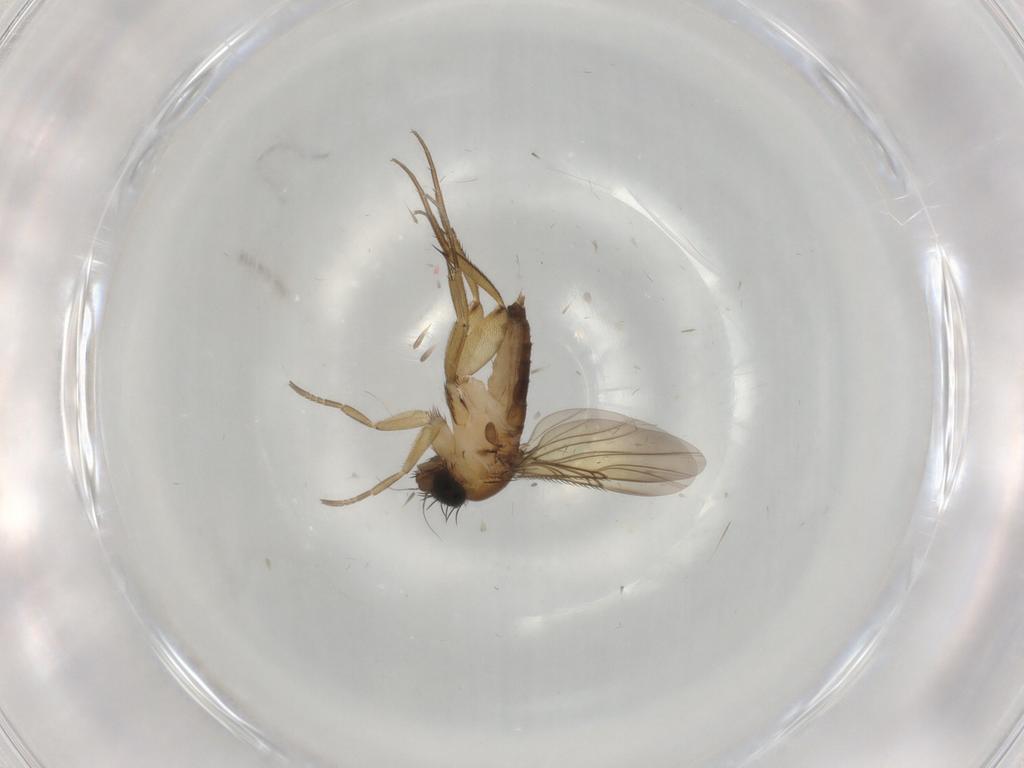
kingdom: Animalia
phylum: Arthropoda
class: Insecta
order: Diptera
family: Phoridae
